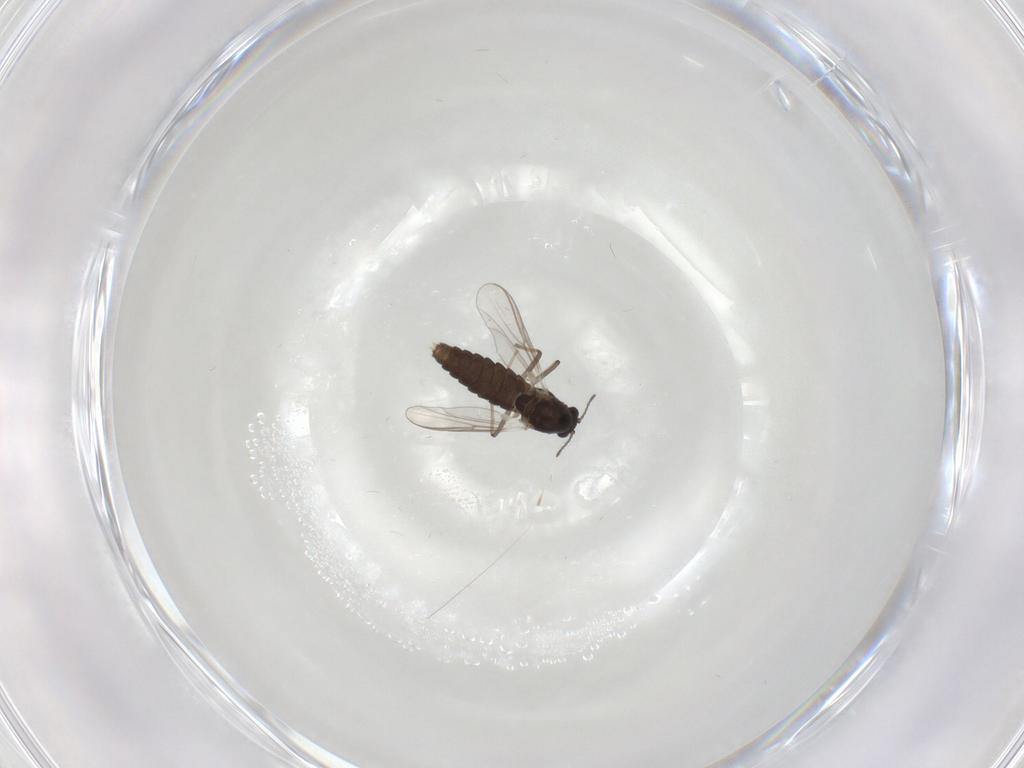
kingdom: Animalia
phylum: Arthropoda
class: Insecta
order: Diptera
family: Chironomidae
